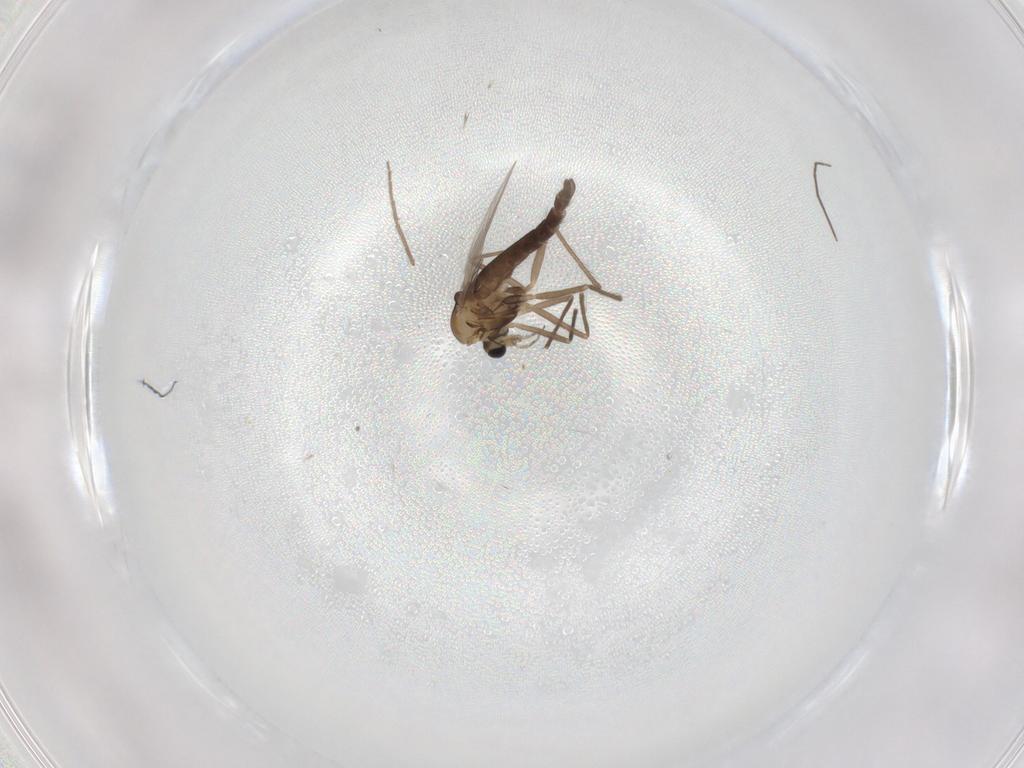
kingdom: Animalia
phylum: Arthropoda
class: Insecta
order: Diptera
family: Chironomidae
